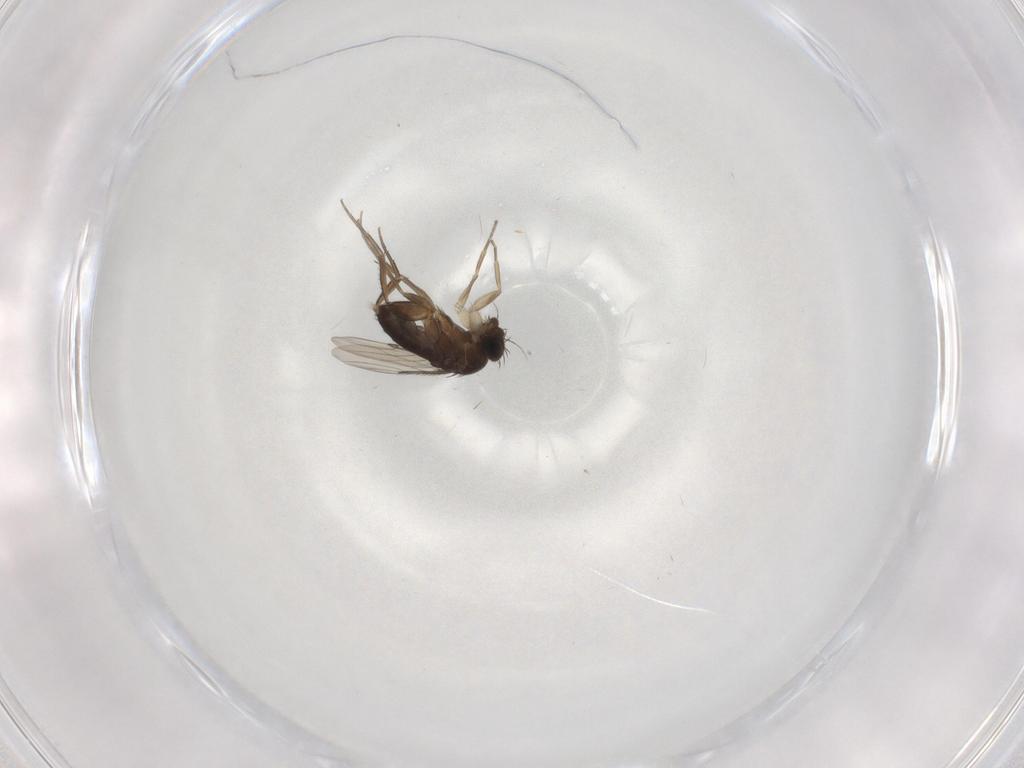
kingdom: Animalia
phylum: Arthropoda
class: Insecta
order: Diptera
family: Phoridae
